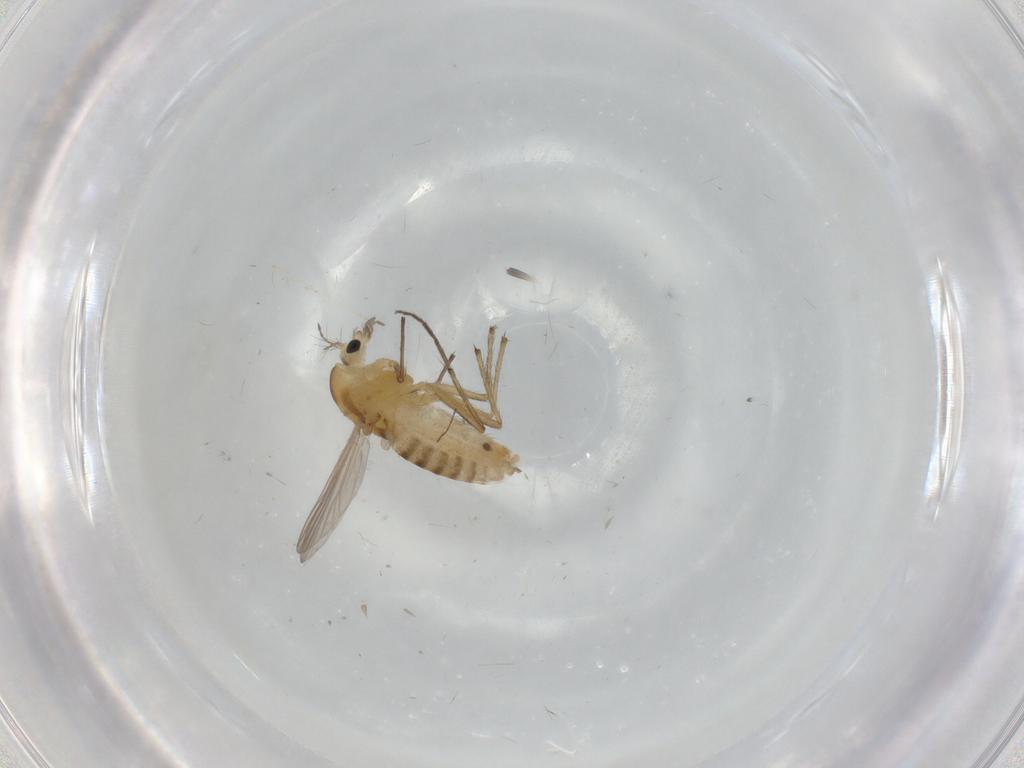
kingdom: Animalia
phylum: Arthropoda
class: Insecta
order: Diptera
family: Chironomidae
